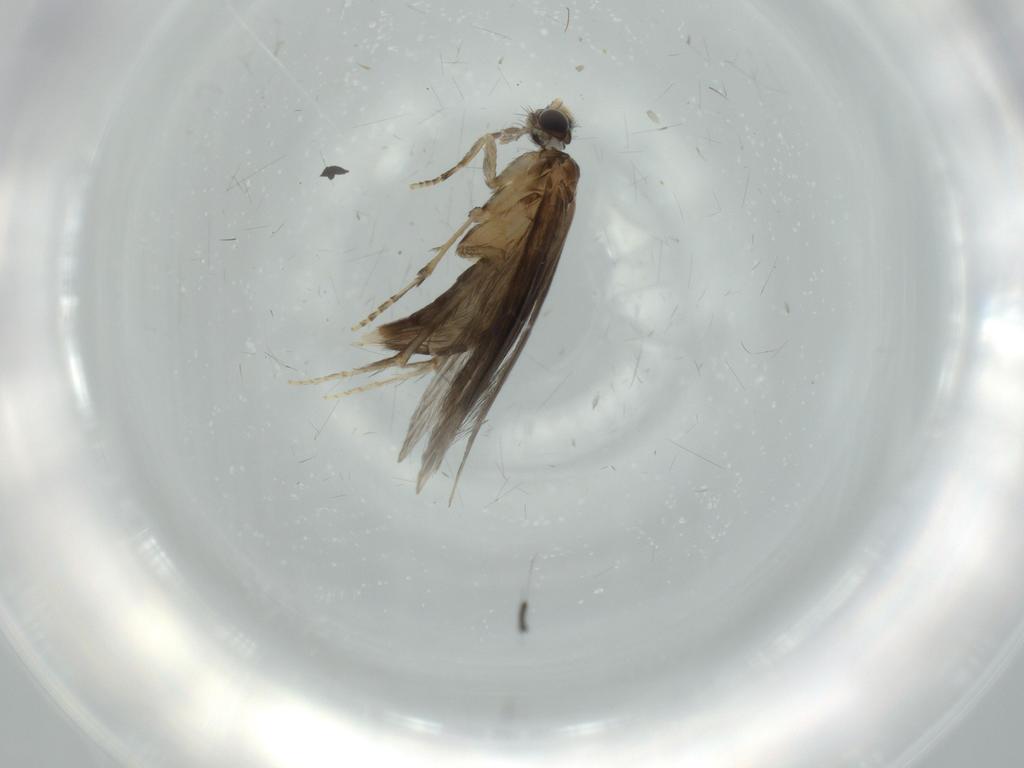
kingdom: Animalia
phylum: Arthropoda
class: Insecta
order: Trichoptera
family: Hydroptilidae
